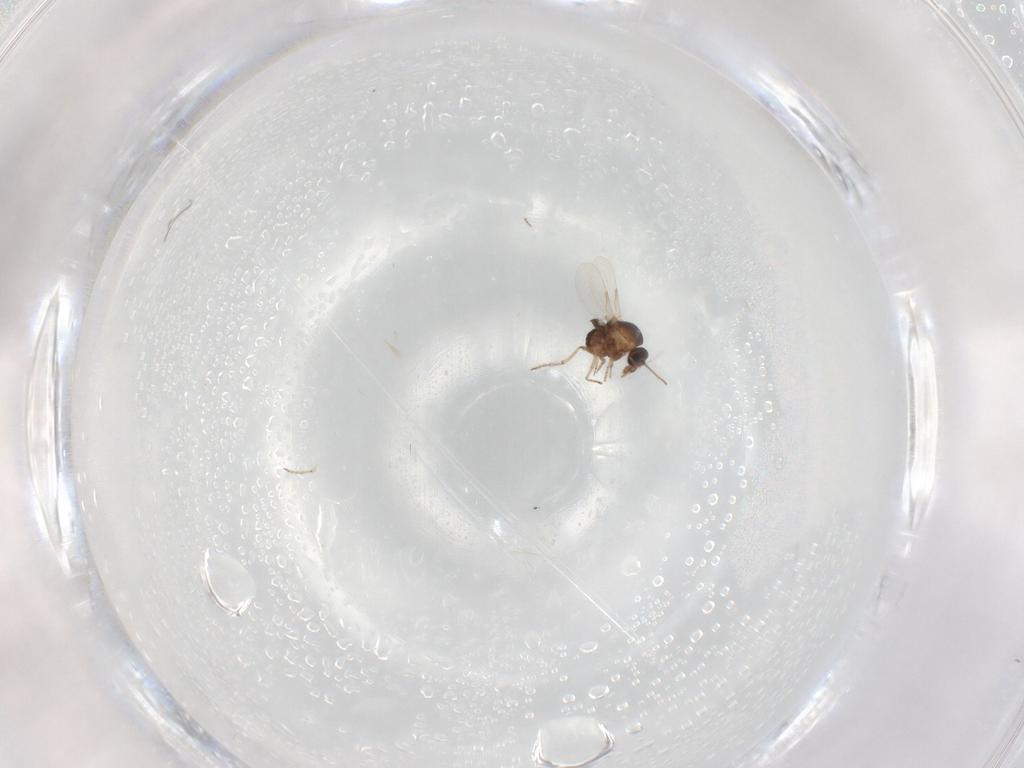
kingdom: Animalia
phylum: Arthropoda
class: Insecta
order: Diptera
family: Ceratopogonidae
